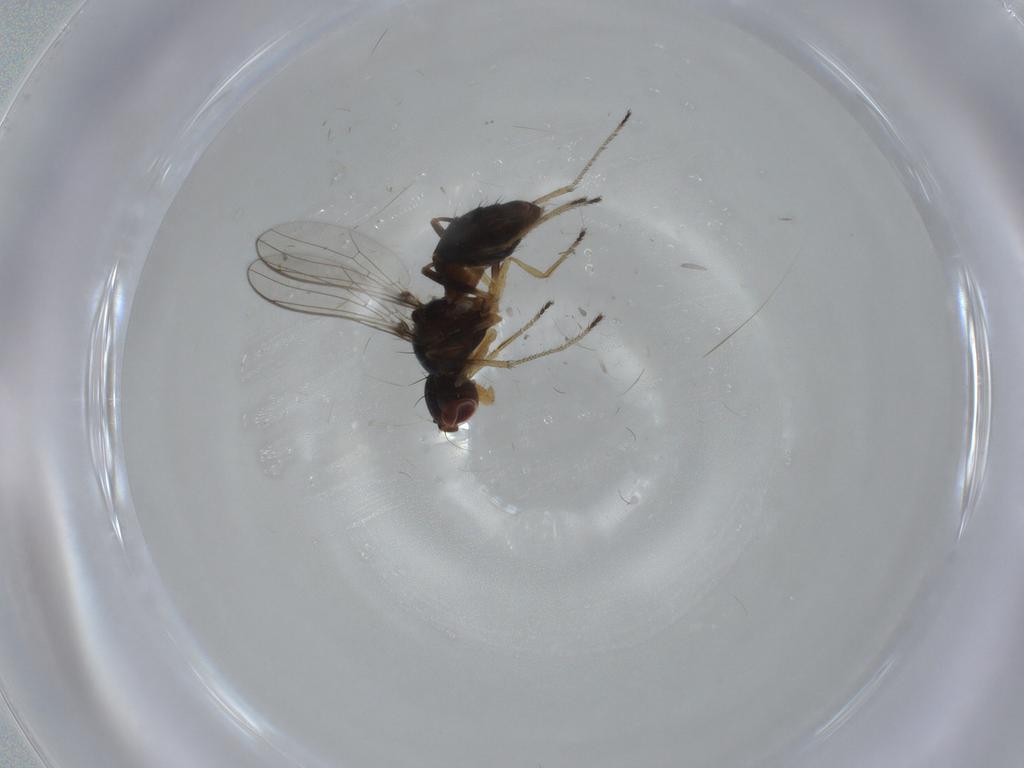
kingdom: Animalia
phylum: Arthropoda
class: Insecta
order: Diptera
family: Sepsidae
